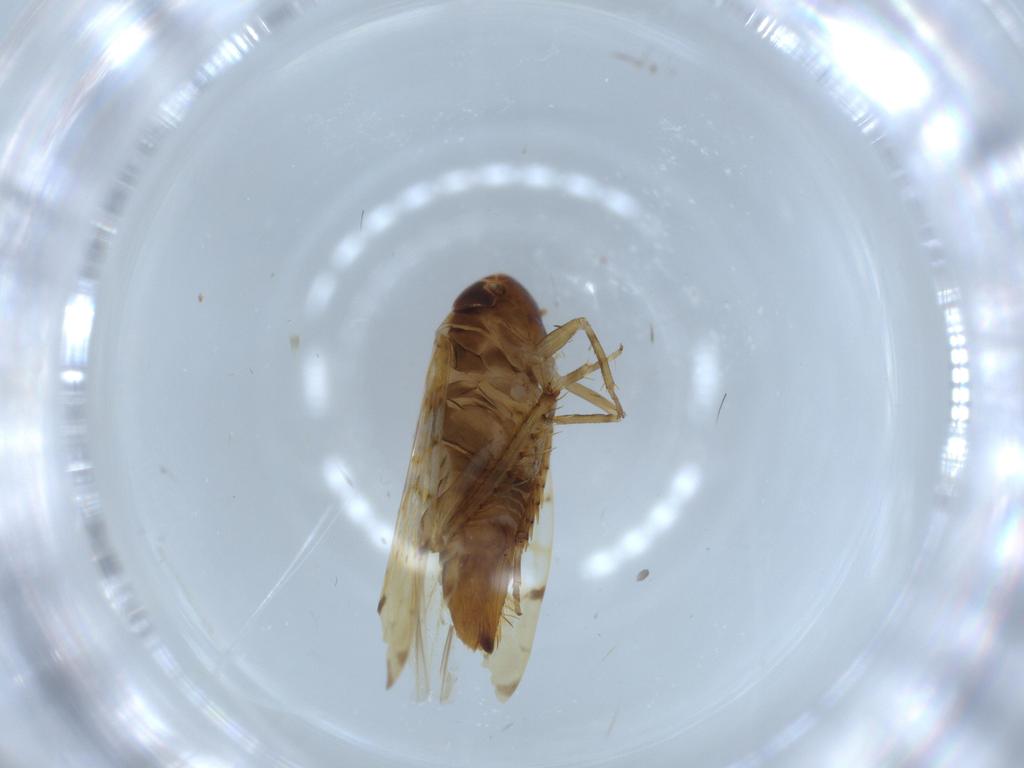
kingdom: Animalia
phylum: Arthropoda
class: Insecta
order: Hemiptera
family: Cicadellidae
